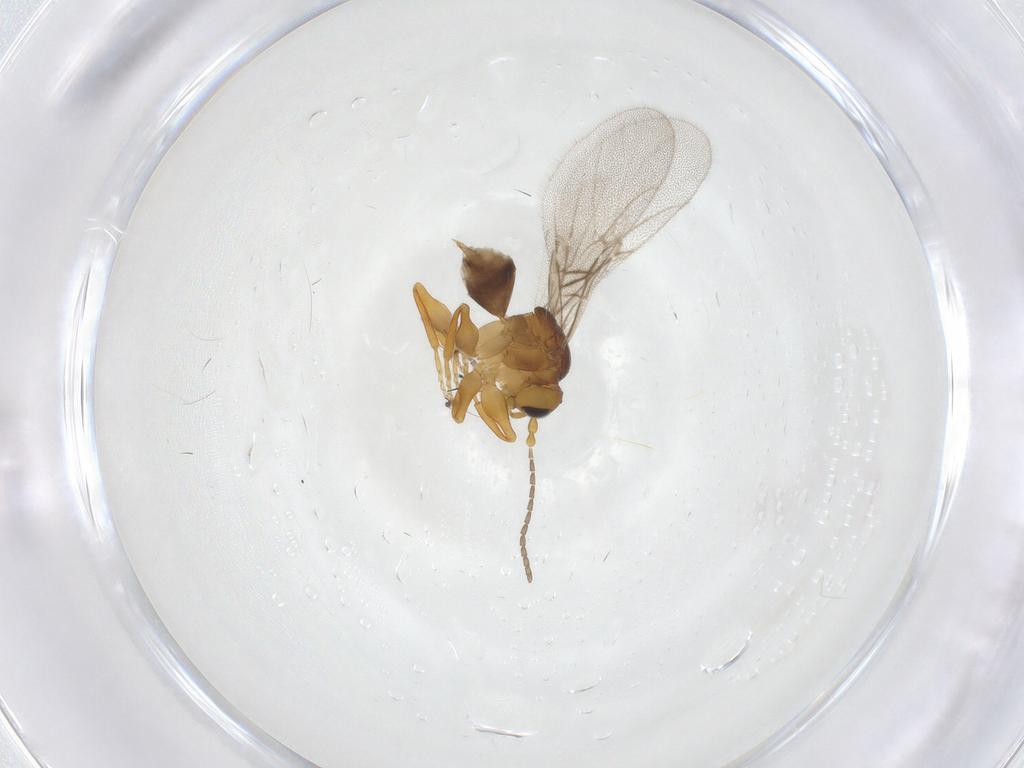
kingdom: Animalia
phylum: Arthropoda
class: Insecta
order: Hymenoptera
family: Cynipidae
